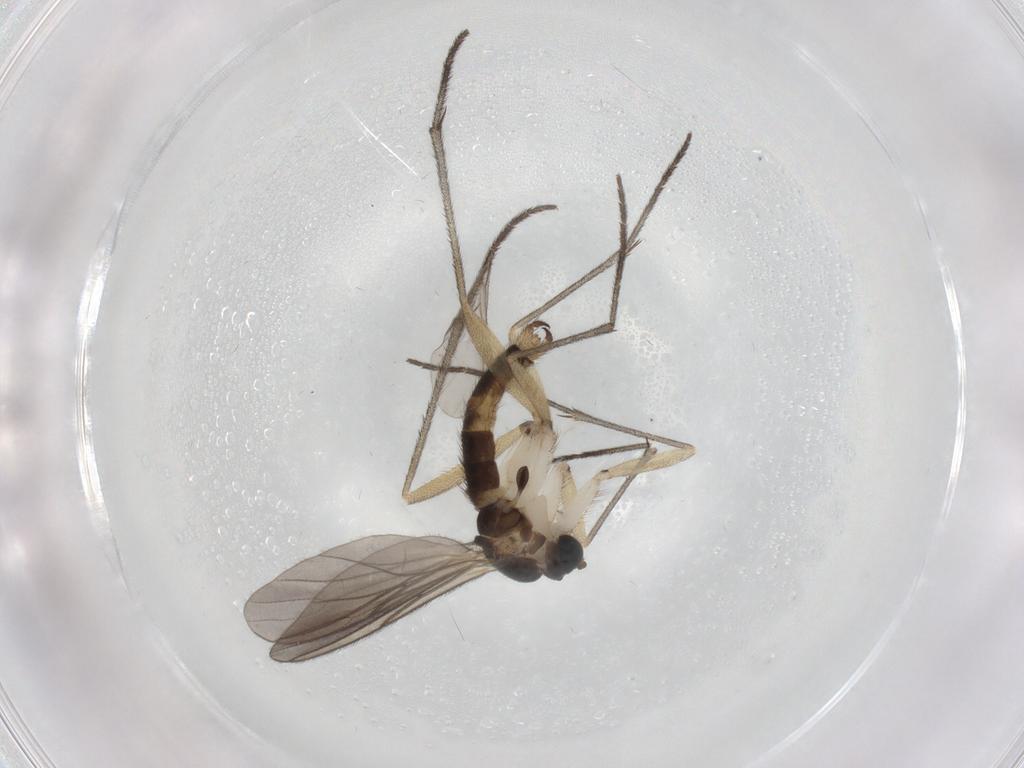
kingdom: Animalia
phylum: Arthropoda
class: Insecta
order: Diptera
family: Sciaridae
